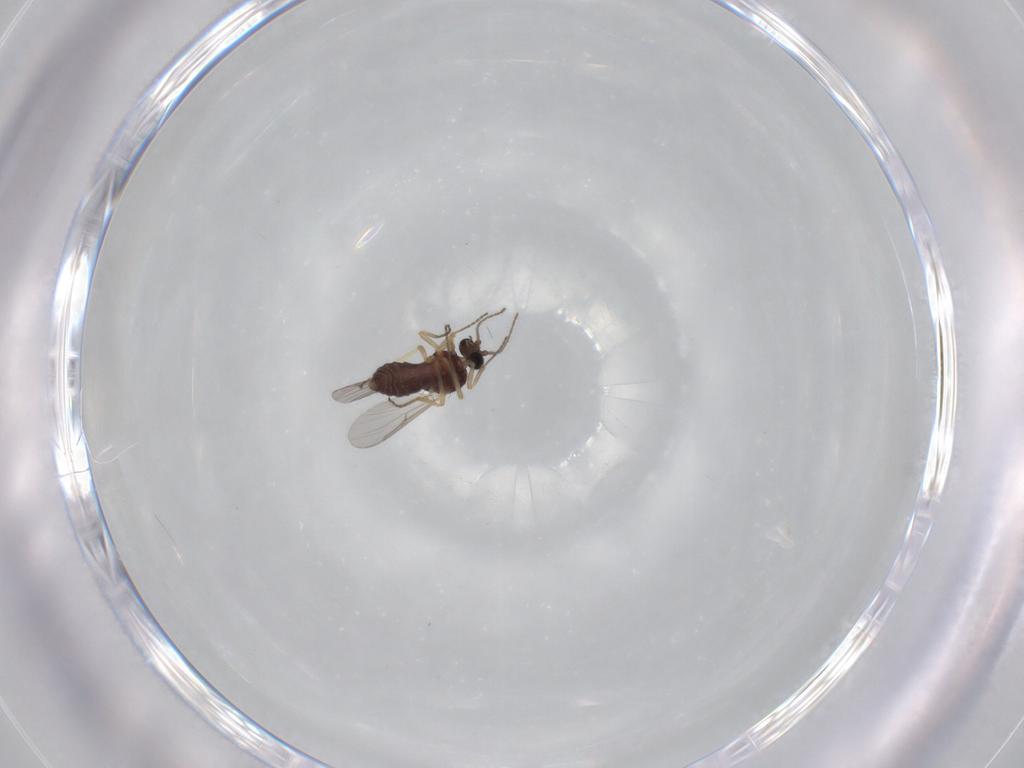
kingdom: Animalia
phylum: Arthropoda
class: Insecta
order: Diptera
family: Ceratopogonidae
